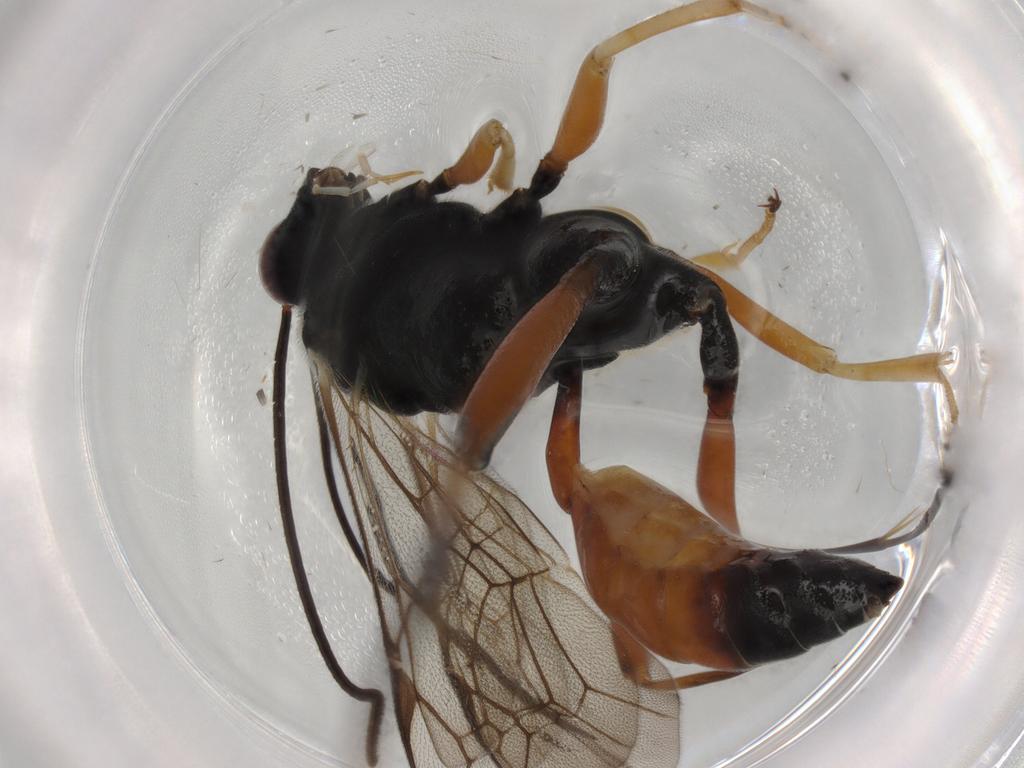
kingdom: Animalia
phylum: Arthropoda
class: Insecta
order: Hymenoptera
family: Ichneumonidae
